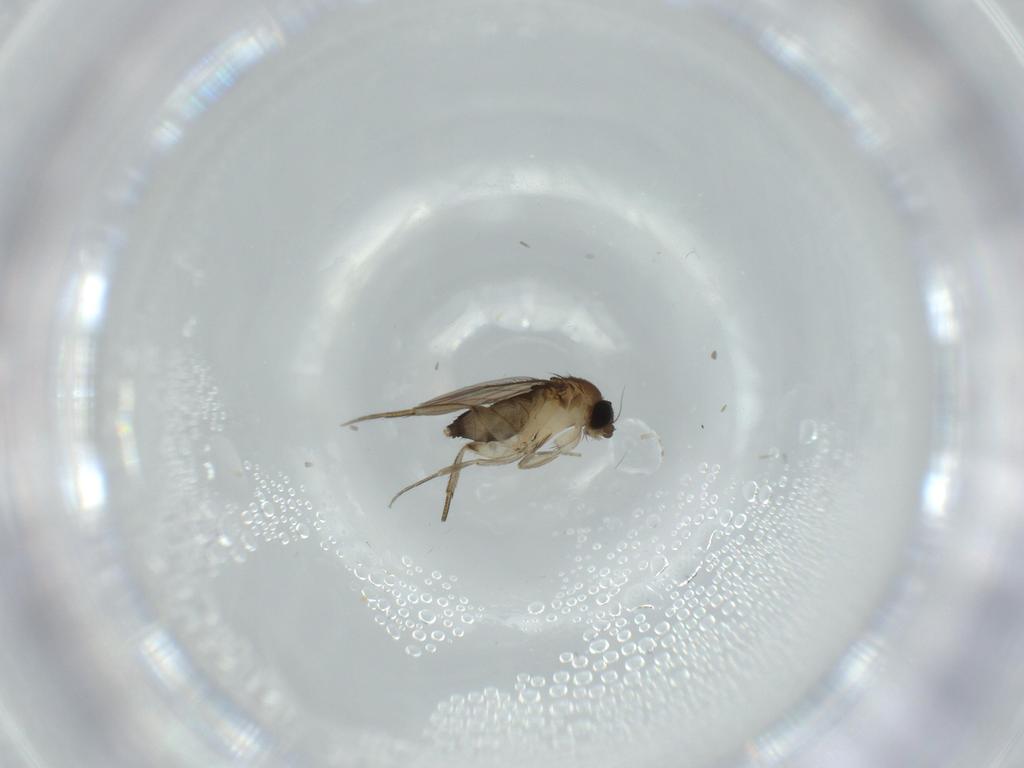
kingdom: Animalia
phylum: Arthropoda
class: Insecta
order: Diptera
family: Phoridae
